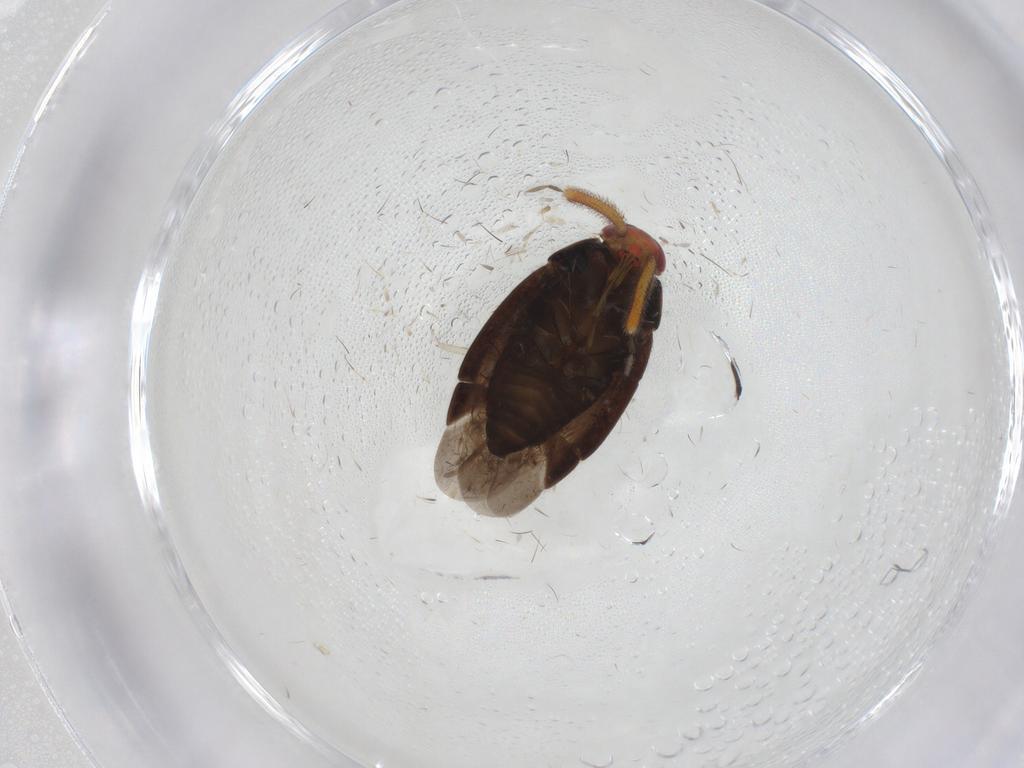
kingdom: Animalia
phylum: Arthropoda
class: Insecta
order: Hemiptera
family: Miridae
